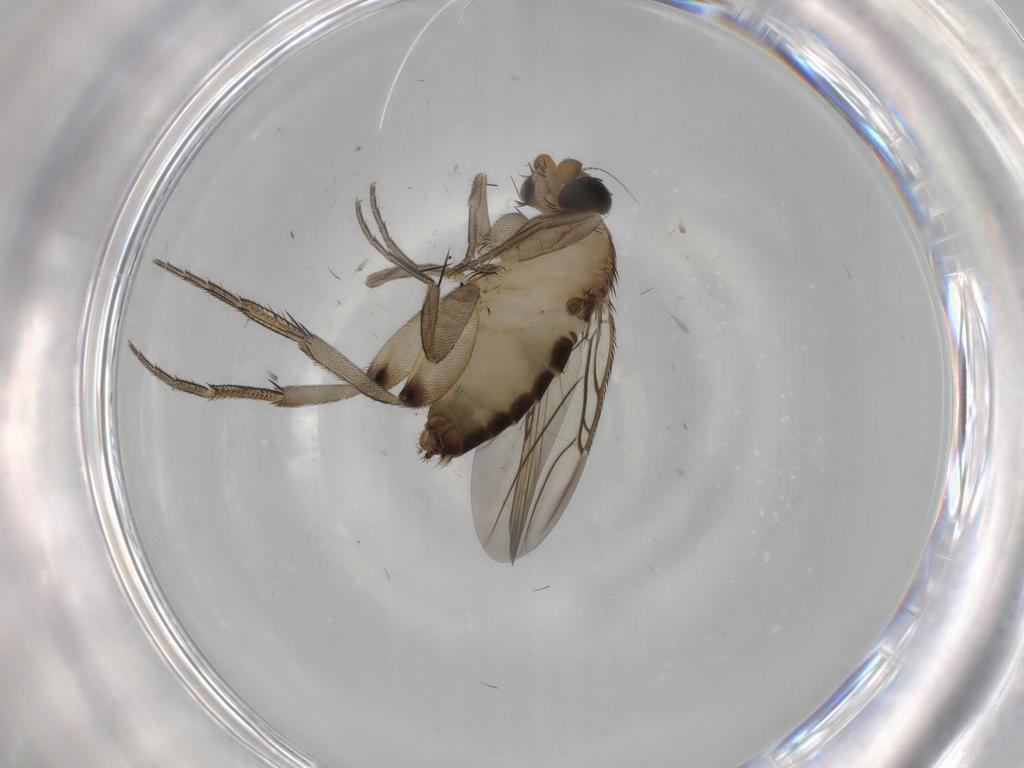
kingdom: Animalia
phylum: Arthropoda
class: Insecta
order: Diptera
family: Phoridae
